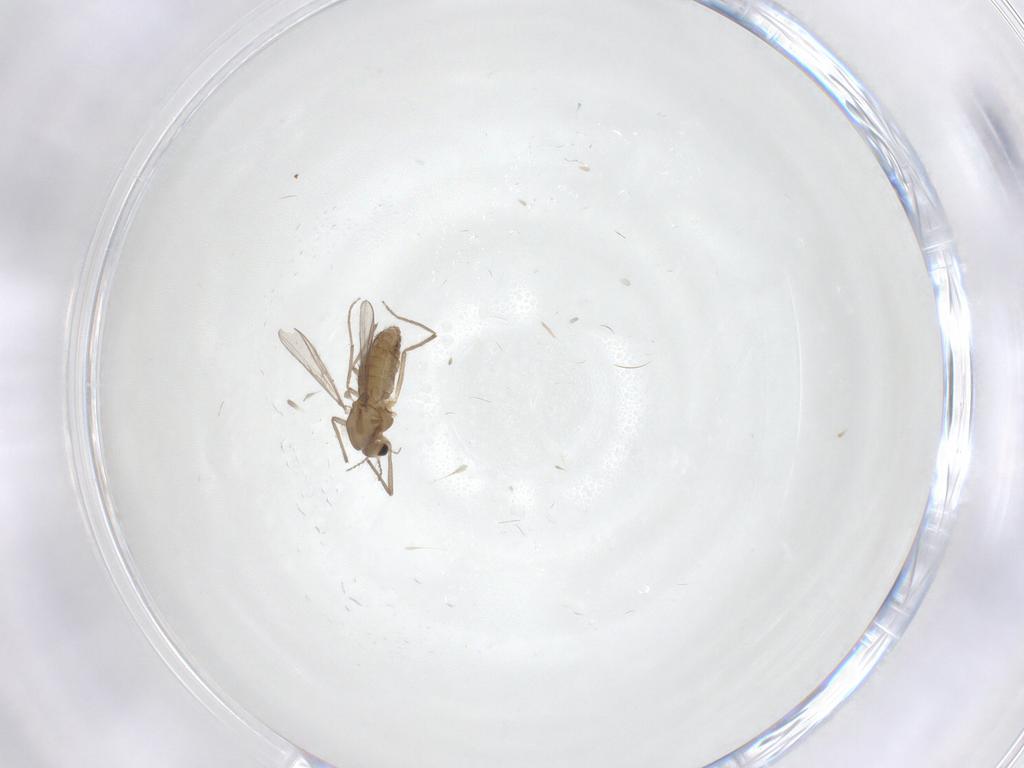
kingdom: Animalia
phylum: Arthropoda
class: Insecta
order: Diptera
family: Chironomidae
